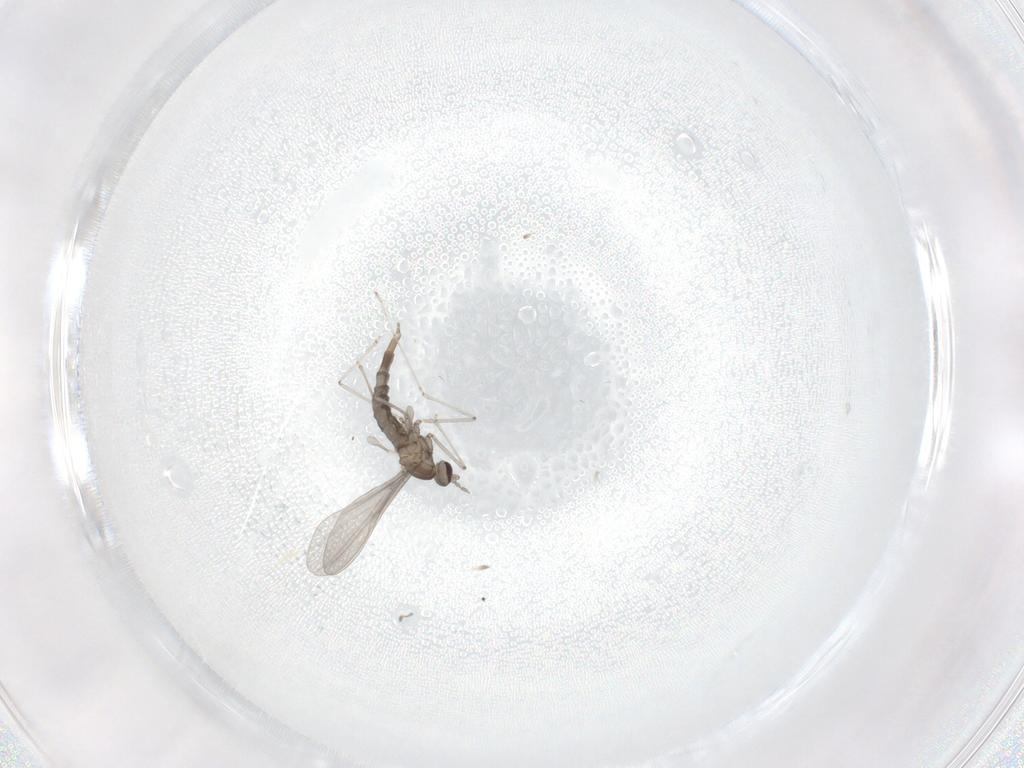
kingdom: Animalia
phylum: Arthropoda
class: Insecta
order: Diptera
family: Cecidomyiidae
